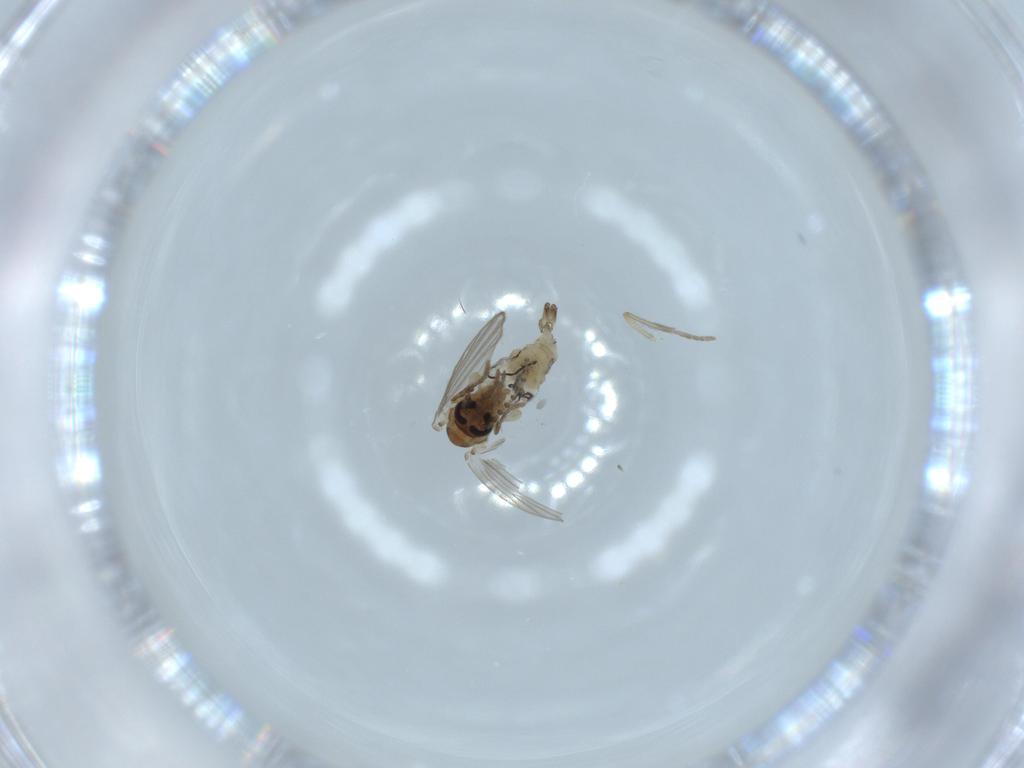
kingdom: Animalia
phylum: Arthropoda
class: Insecta
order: Diptera
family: Psychodidae
